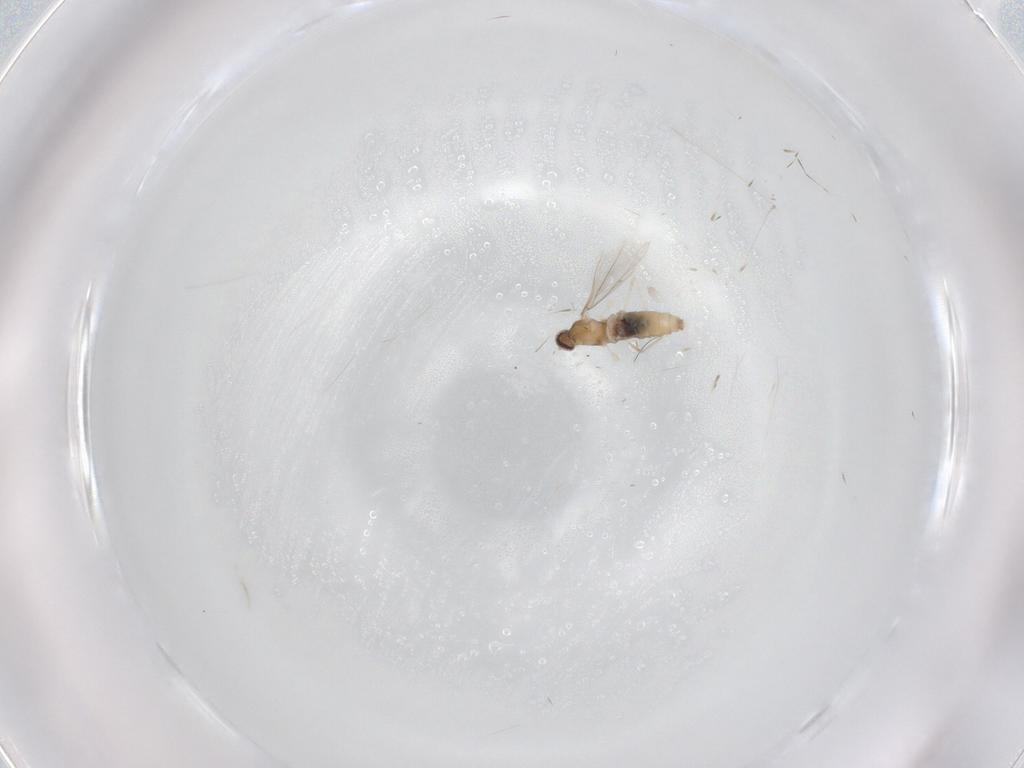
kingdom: Animalia
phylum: Arthropoda
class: Insecta
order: Diptera
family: Cecidomyiidae
